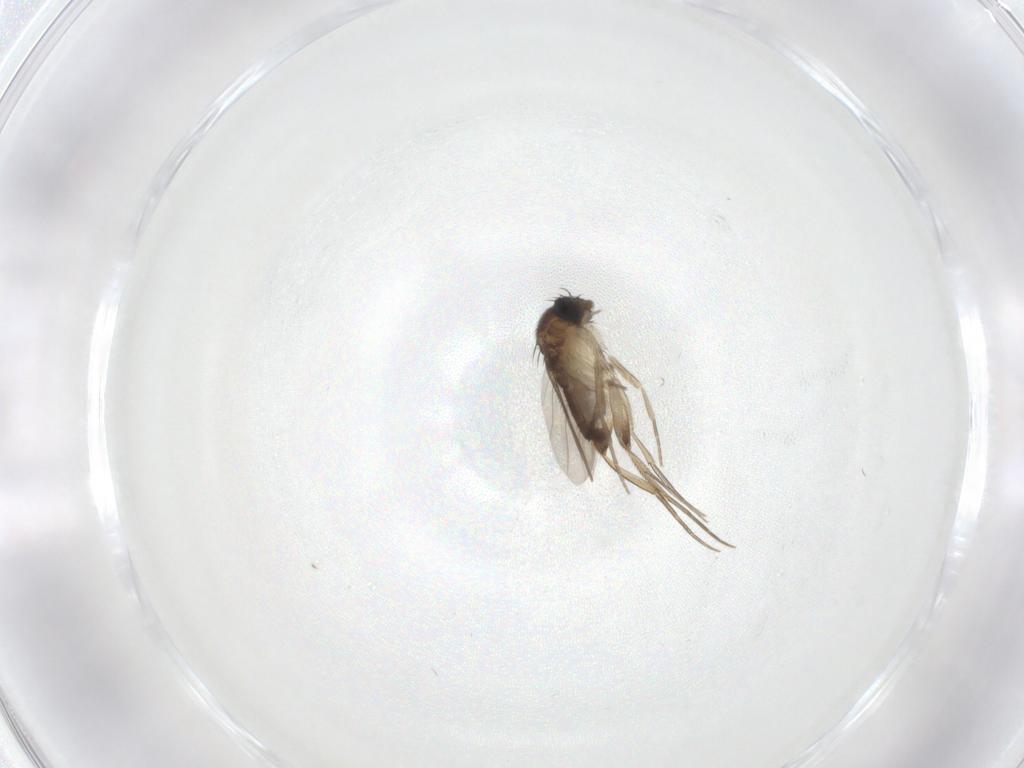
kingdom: Animalia
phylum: Arthropoda
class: Insecta
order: Diptera
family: Phoridae
